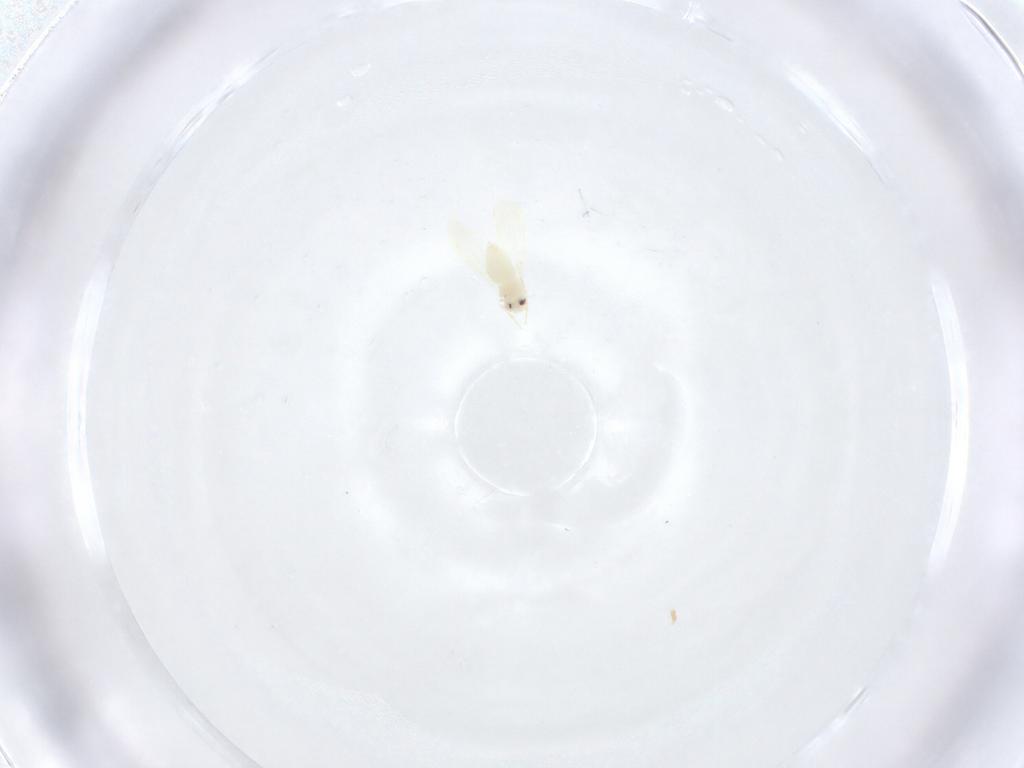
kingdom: Animalia
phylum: Arthropoda
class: Insecta
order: Hemiptera
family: Aleyrodidae
